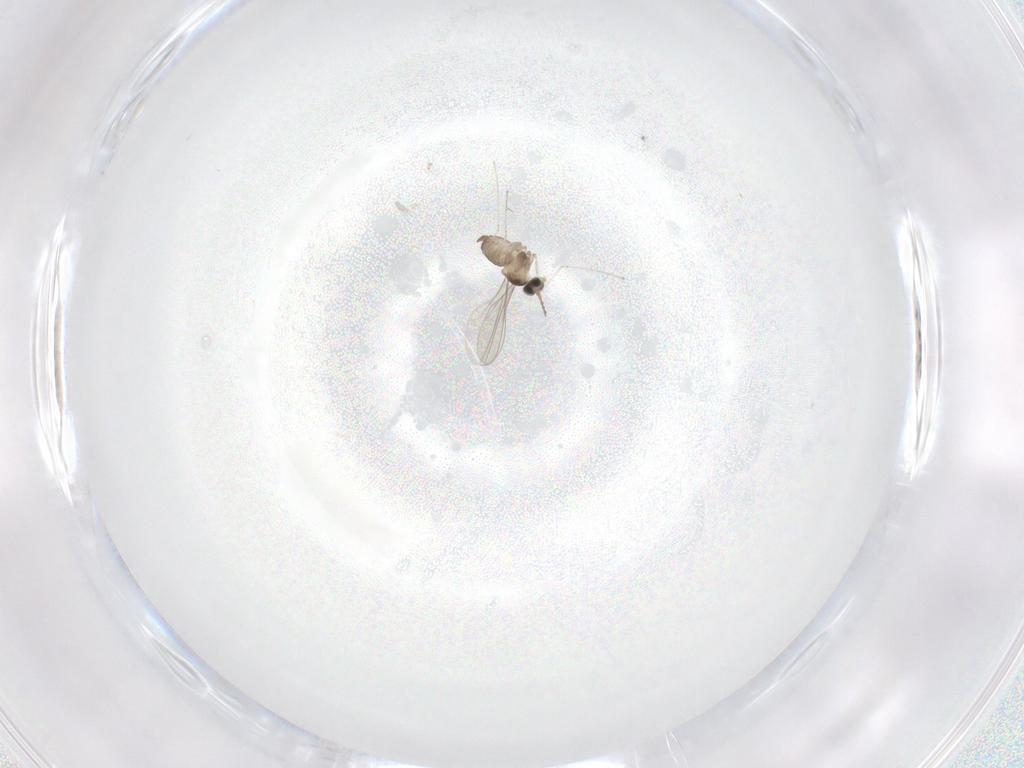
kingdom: Animalia
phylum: Arthropoda
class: Insecta
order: Diptera
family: Cecidomyiidae
